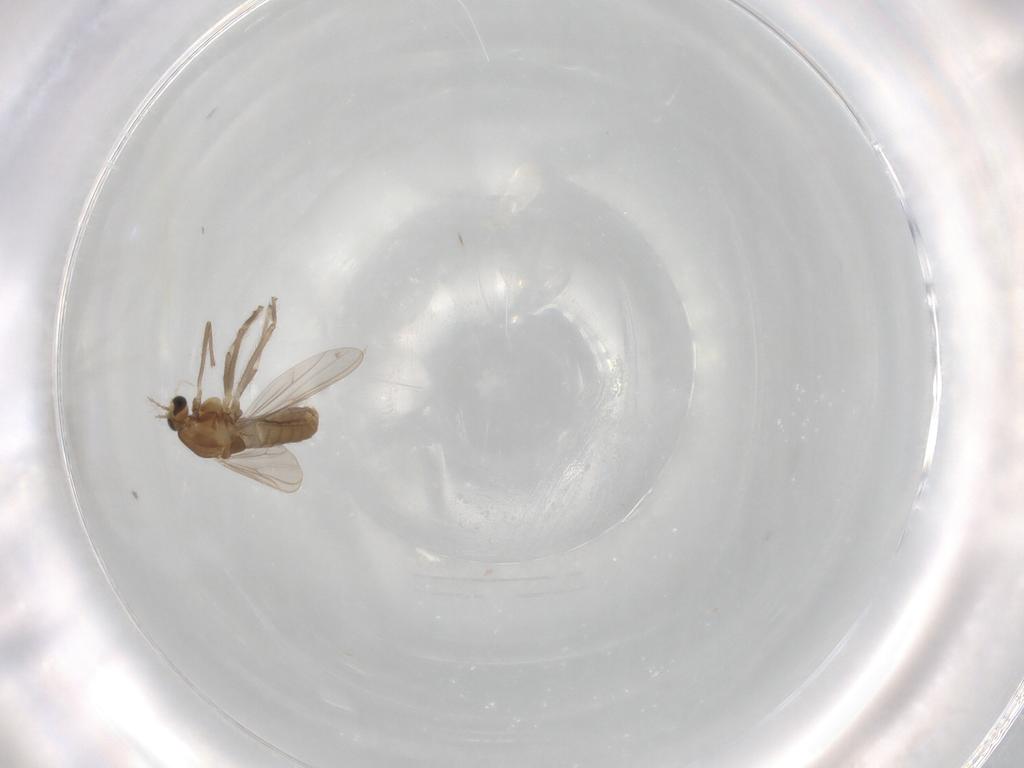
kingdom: Animalia
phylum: Arthropoda
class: Insecta
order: Diptera
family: Chironomidae
